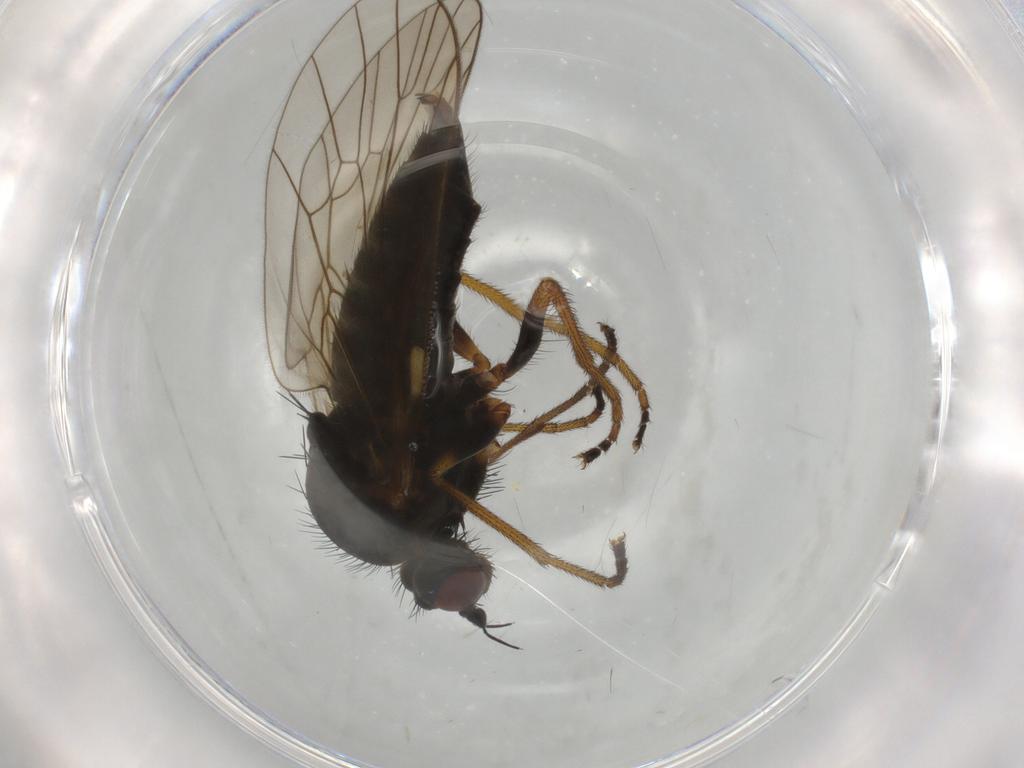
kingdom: Animalia
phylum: Arthropoda
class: Insecta
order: Diptera
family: Brachystomatidae
